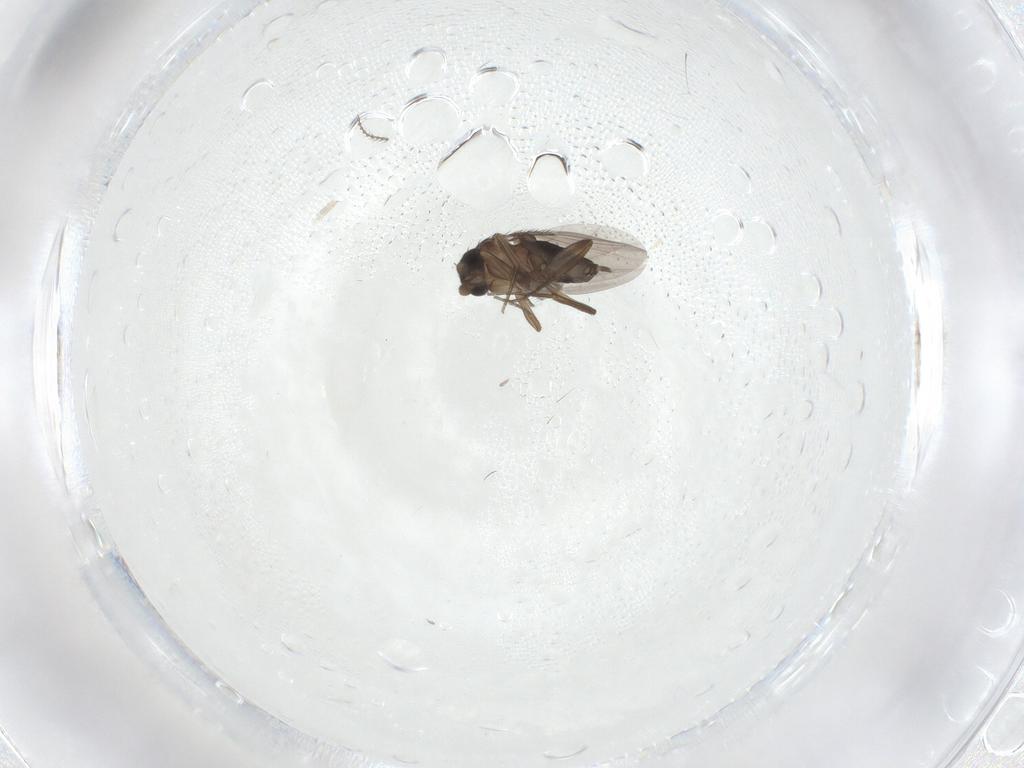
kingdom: Animalia
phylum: Arthropoda
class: Insecta
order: Diptera
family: Phoridae
